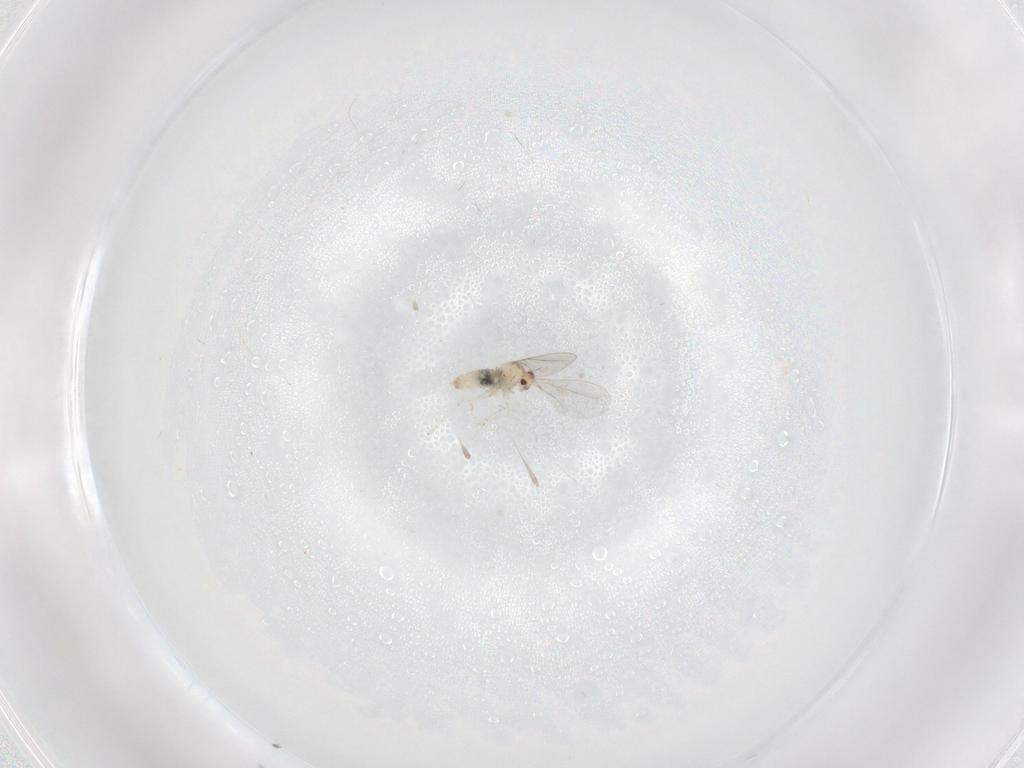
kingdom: Animalia
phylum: Arthropoda
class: Insecta
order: Diptera
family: Cecidomyiidae
